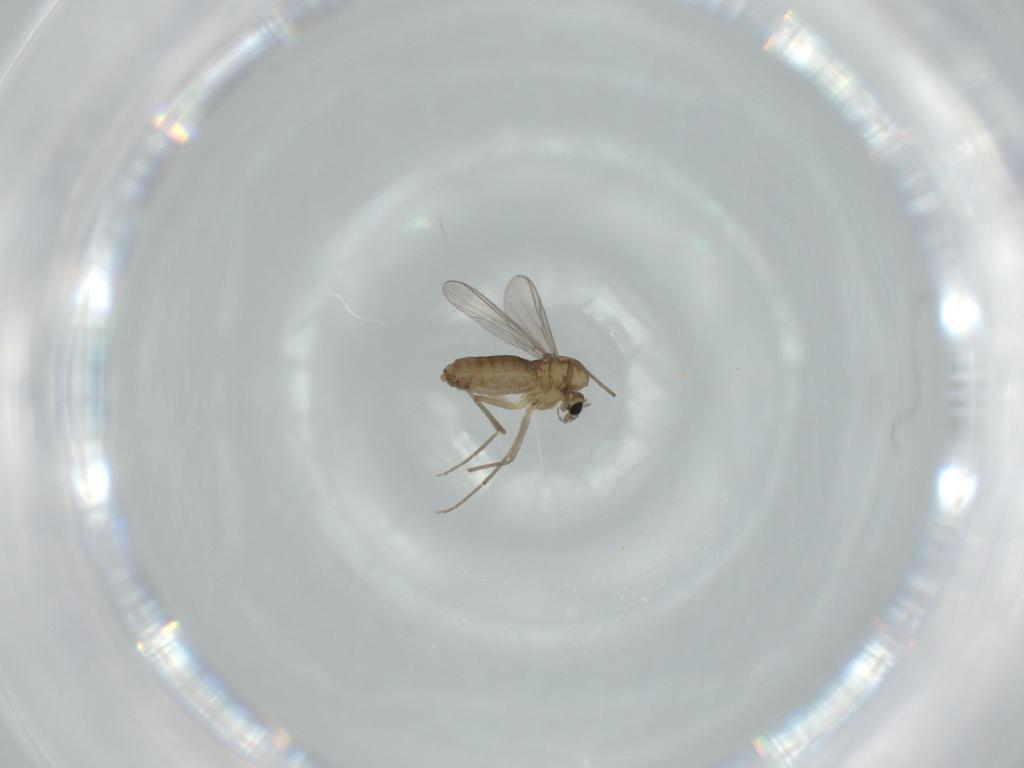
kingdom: Animalia
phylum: Arthropoda
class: Insecta
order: Diptera
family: Chironomidae
